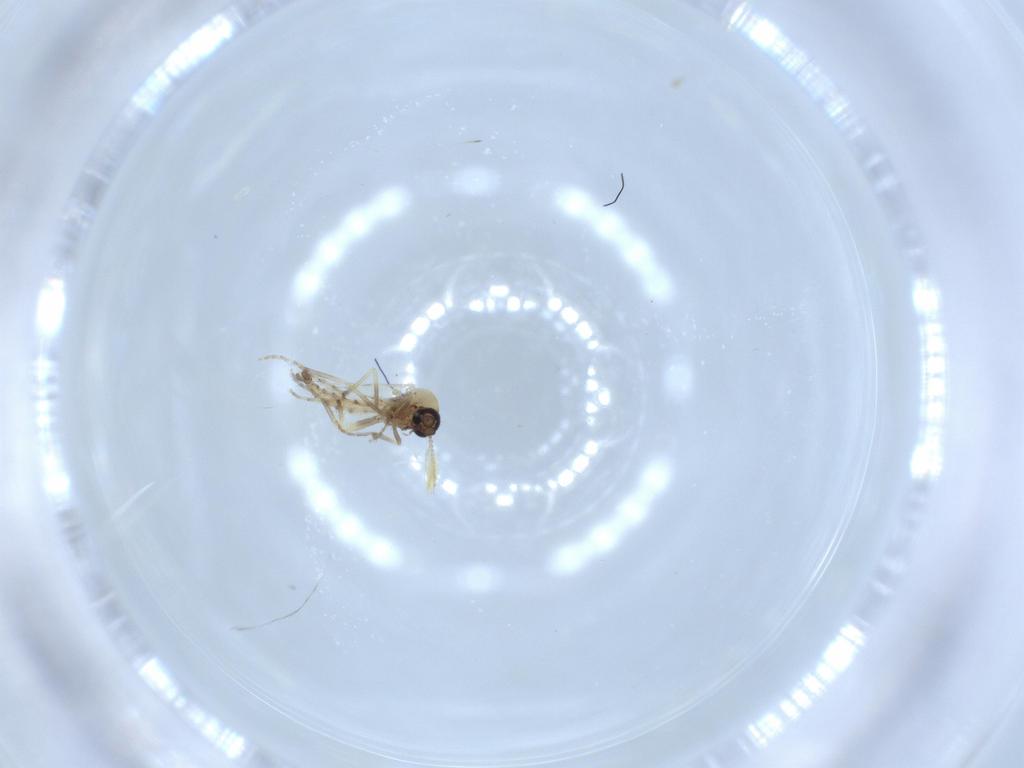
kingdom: Animalia
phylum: Arthropoda
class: Insecta
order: Diptera
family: Ceratopogonidae
